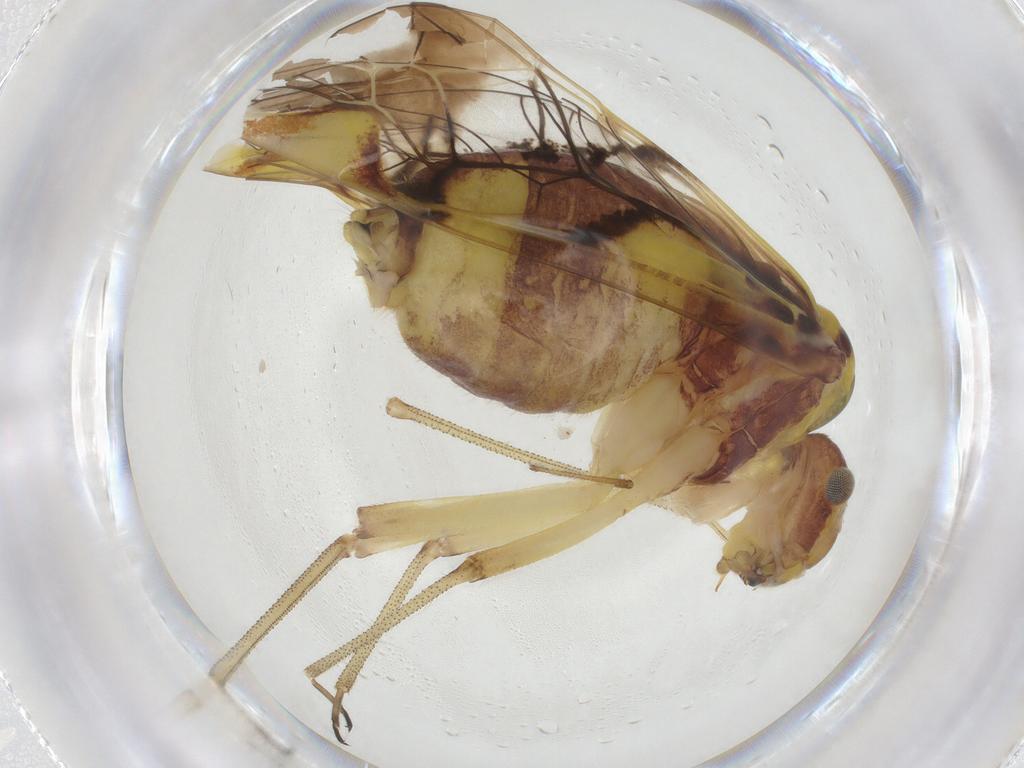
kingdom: Animalia
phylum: Arthropoda
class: Insecta
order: Psocodea
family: Psocidae
